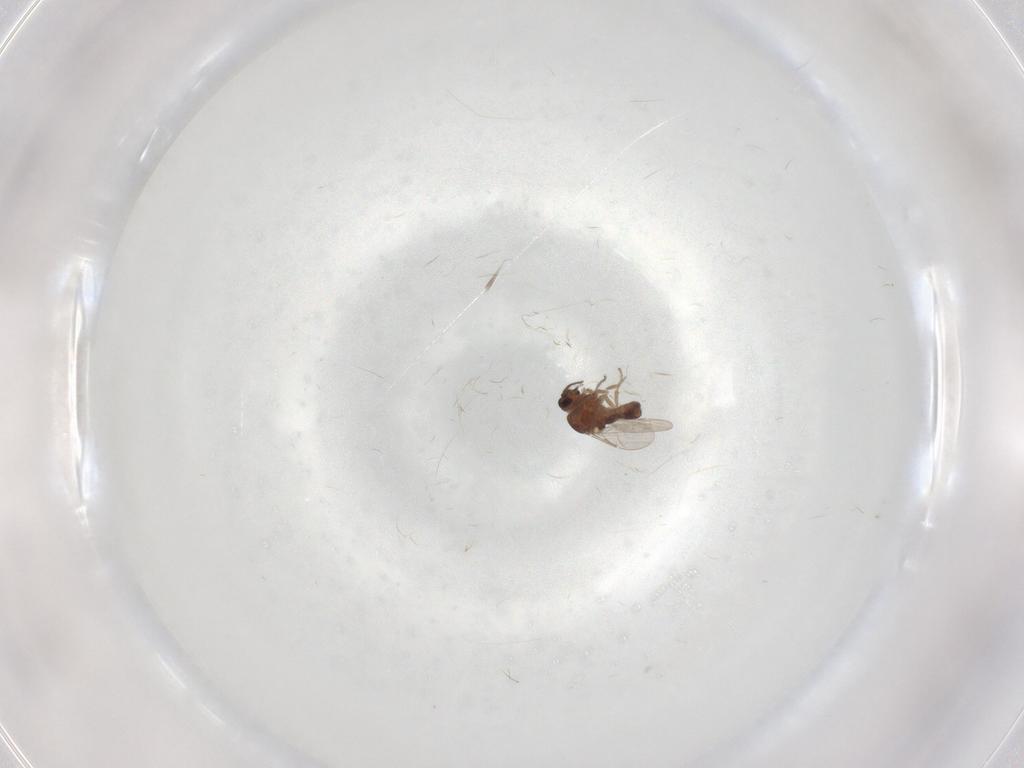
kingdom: Animalia
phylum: Arthropoda
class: Insecta
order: Diptera
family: Ceratopogonidae
